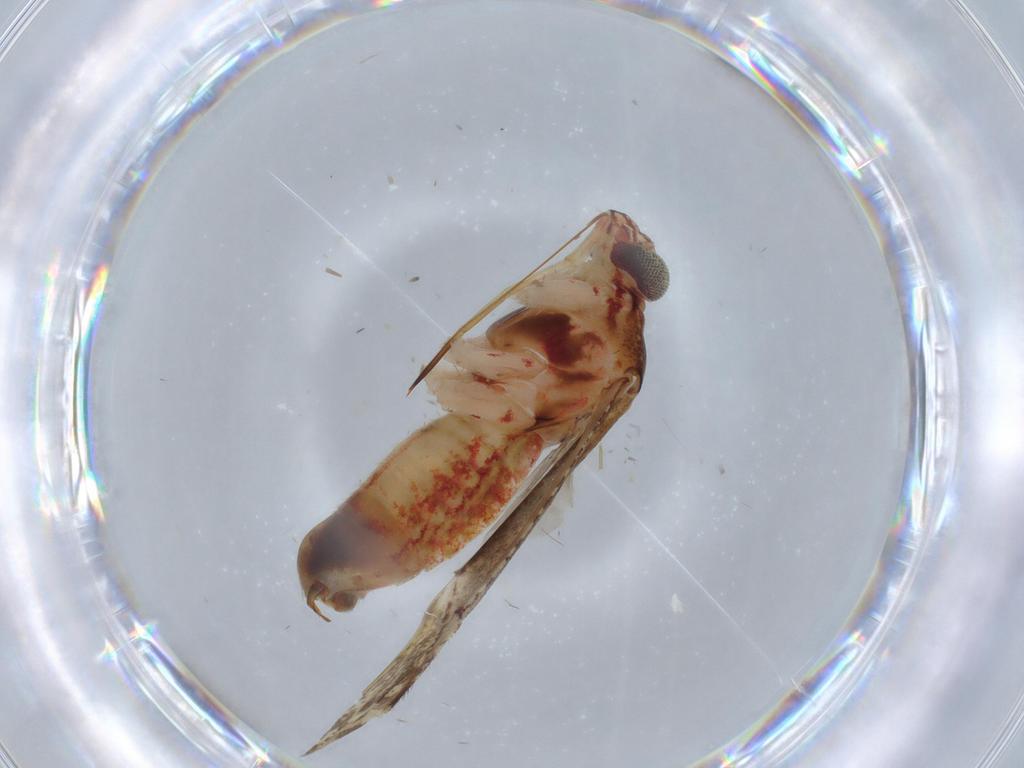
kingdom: Animalia
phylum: Arthropoda
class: Insecta
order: Hemiptera
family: Miridae
